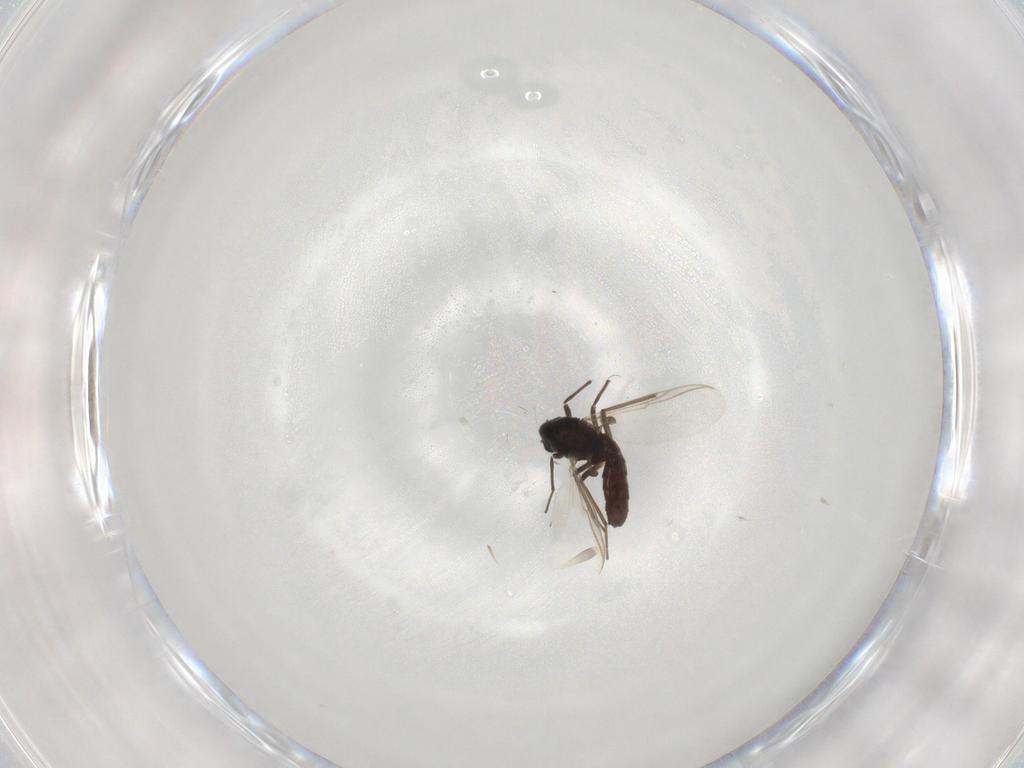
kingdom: Animalia
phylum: Arthropoda
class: Insecta
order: Diptera
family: Chironomidae
